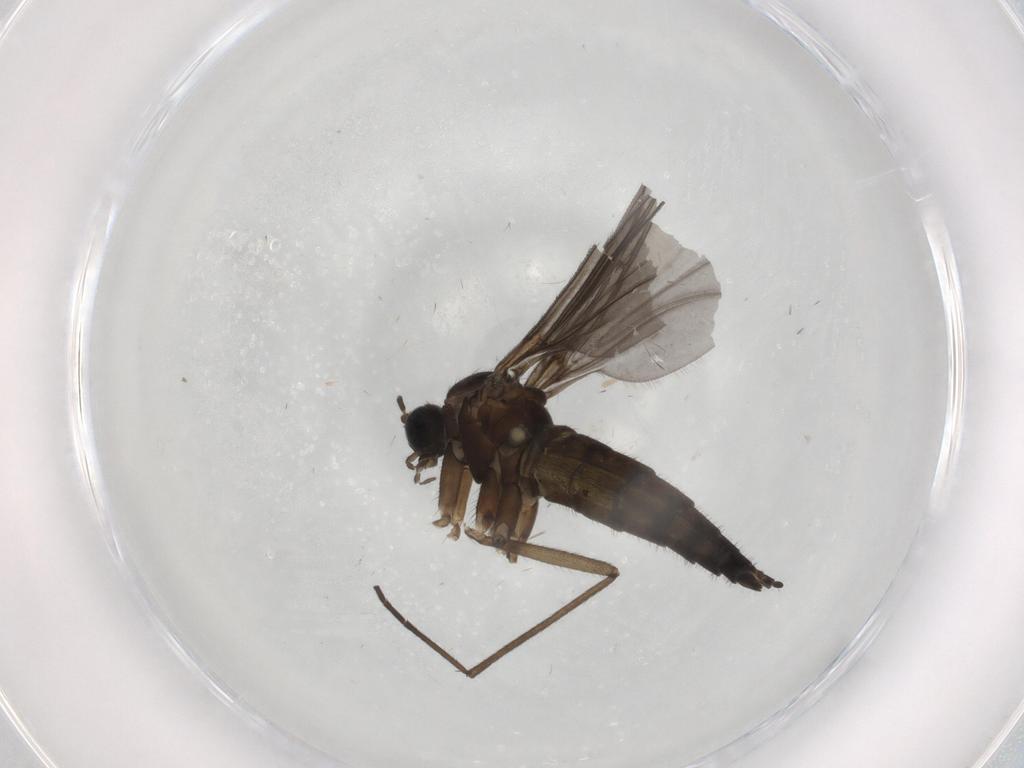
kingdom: Animalia
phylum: Arthropoda
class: Insecta
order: Diptera
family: Sciaridae
